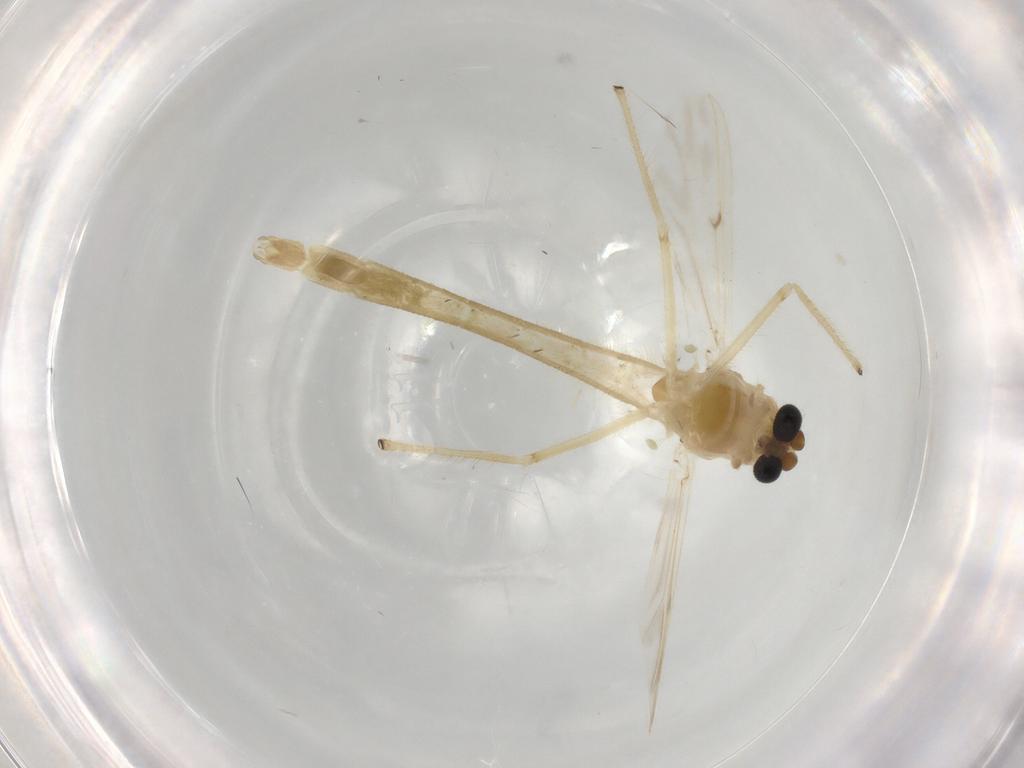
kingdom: Animalia
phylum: Arthropoda
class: Insecta
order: Diptera
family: Chironomidae
